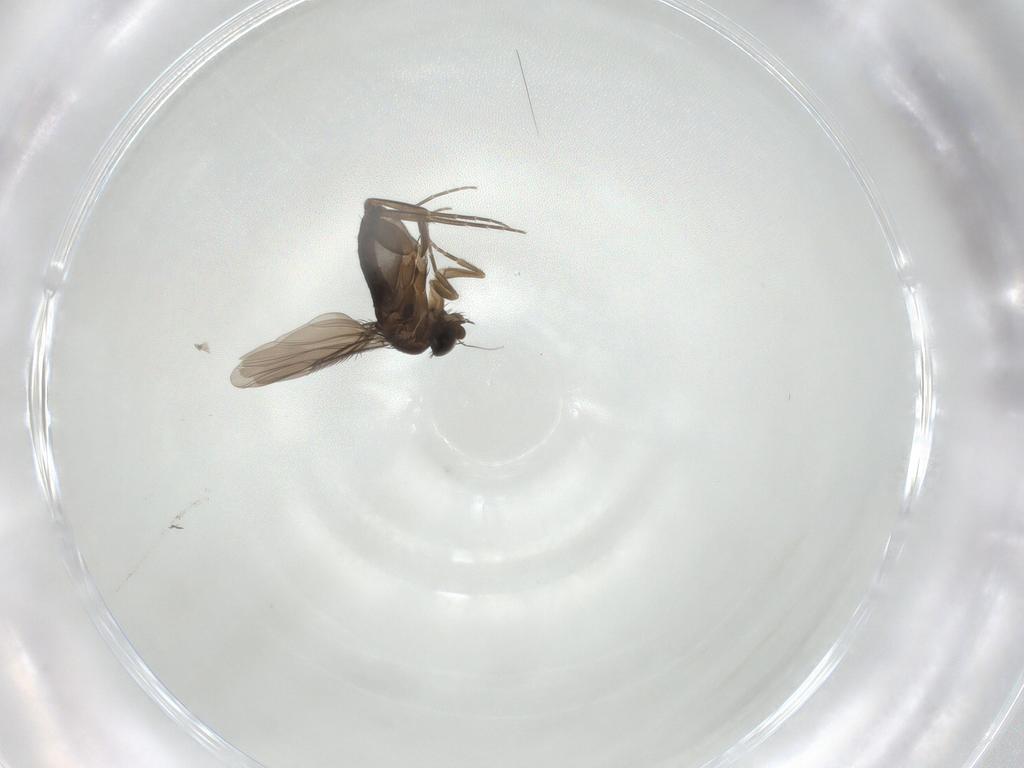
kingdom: Animalia
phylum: Arthropoda
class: Insecta
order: Diptera
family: Phoridae
